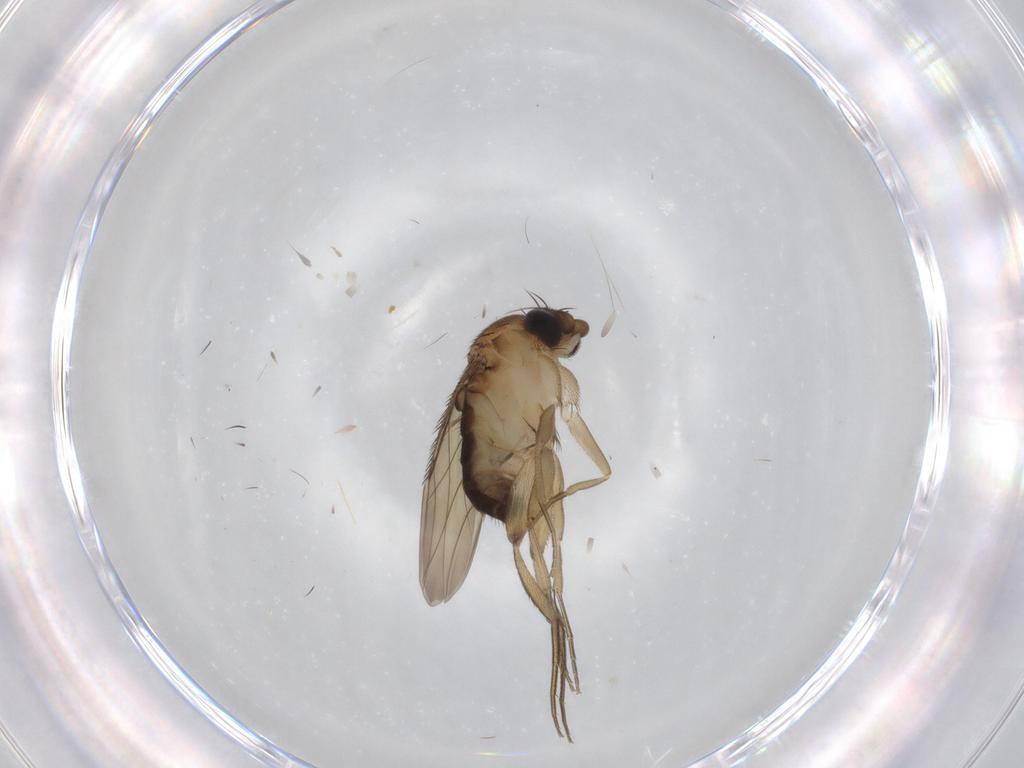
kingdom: Animalia
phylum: Arthropoda
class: Insecta
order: Diptera
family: Phoridae
